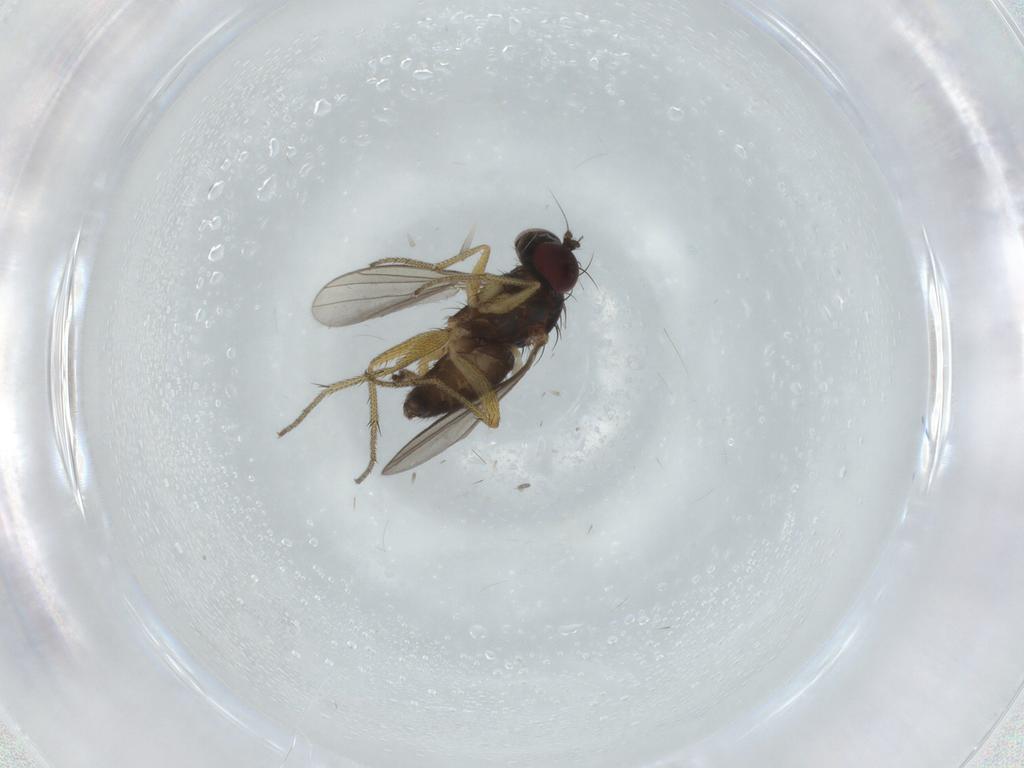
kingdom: Animalia
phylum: Arthropoda
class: Insecta
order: Diptera
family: Dolichopodidae
